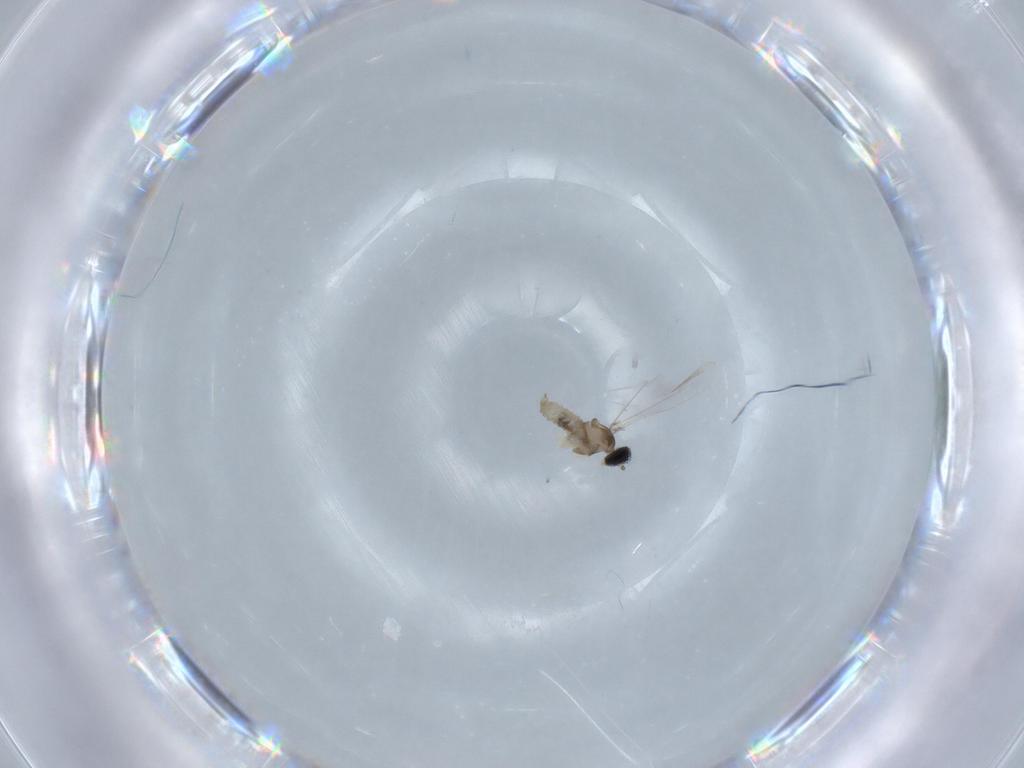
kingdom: Animalia
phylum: Arthropoda
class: Insecta
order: Diptera
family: Cecidomyiidae
